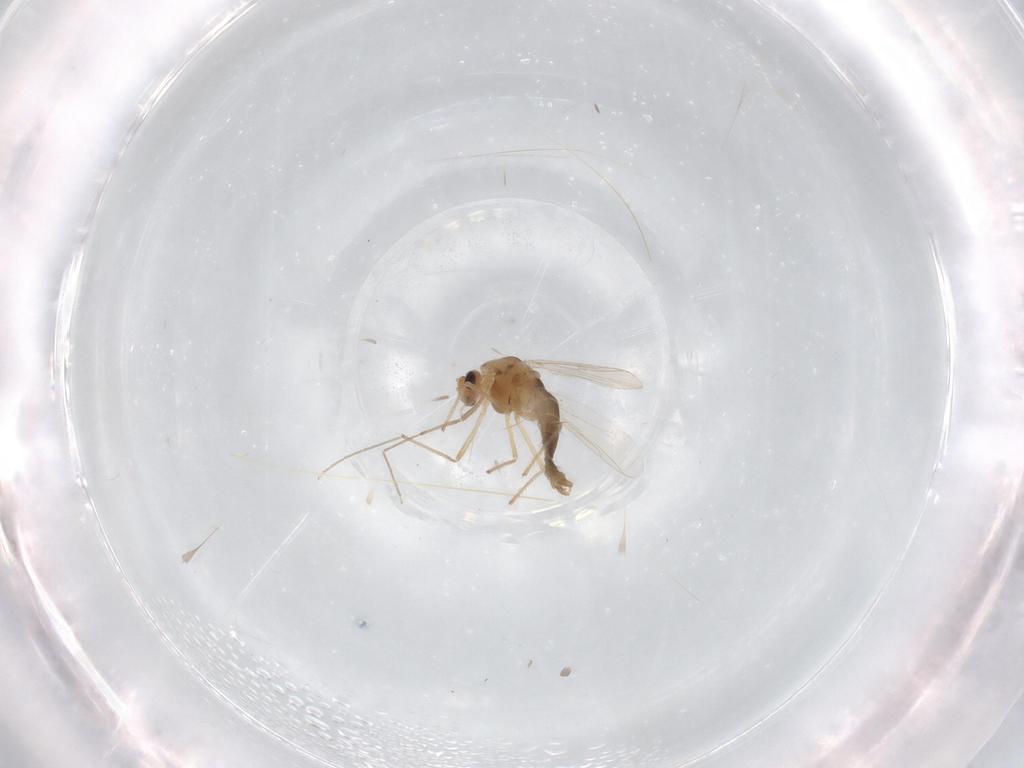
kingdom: Animalia
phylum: Arthropoda
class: Insecta
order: Diptera
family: Chironomidae
